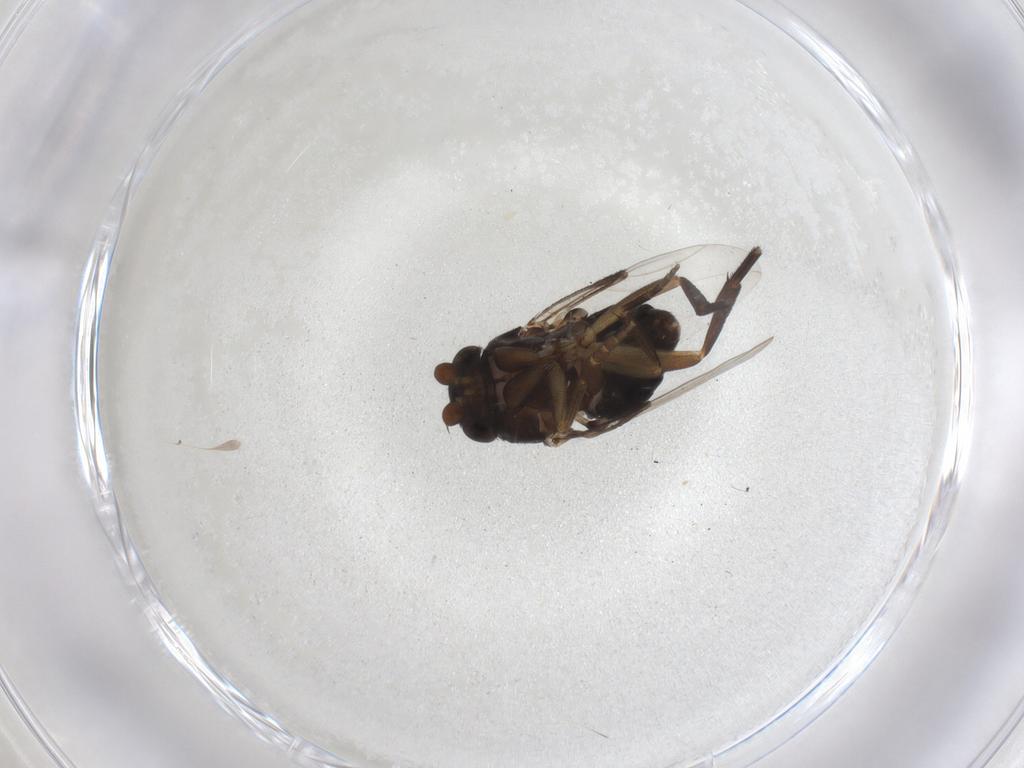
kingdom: Animalia
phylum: Arthropoda
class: Insecta
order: Diptera
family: Phoridae
